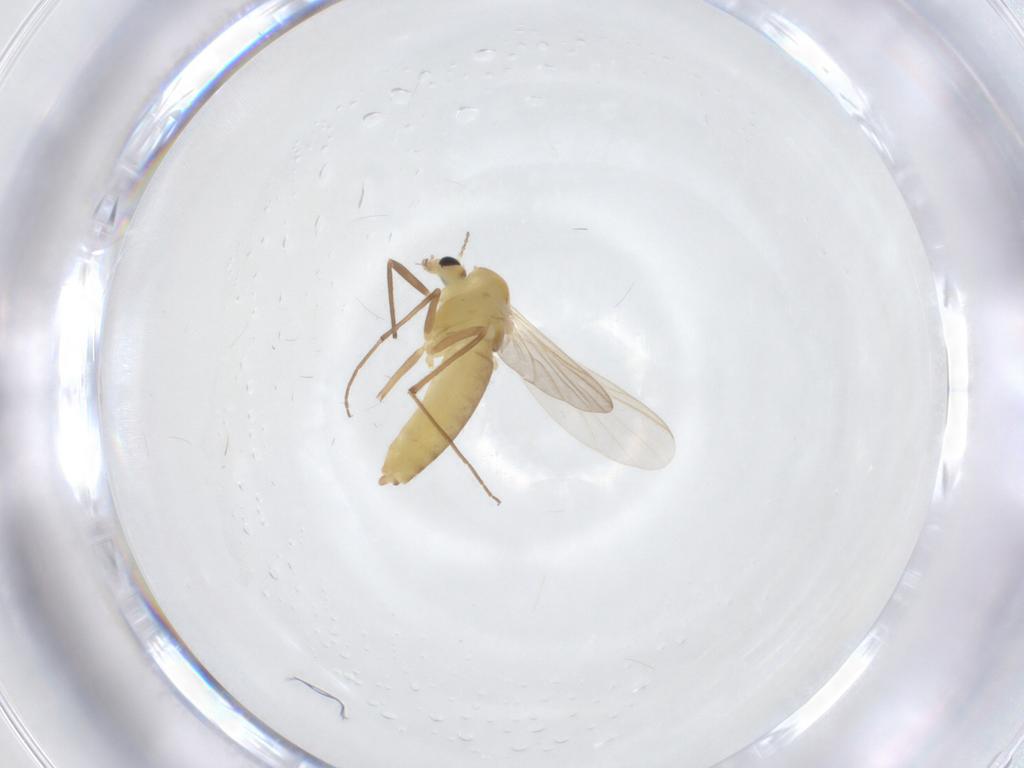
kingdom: Animalia
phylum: Arthropoda
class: Insecta
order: Diptera
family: Chironomidae
